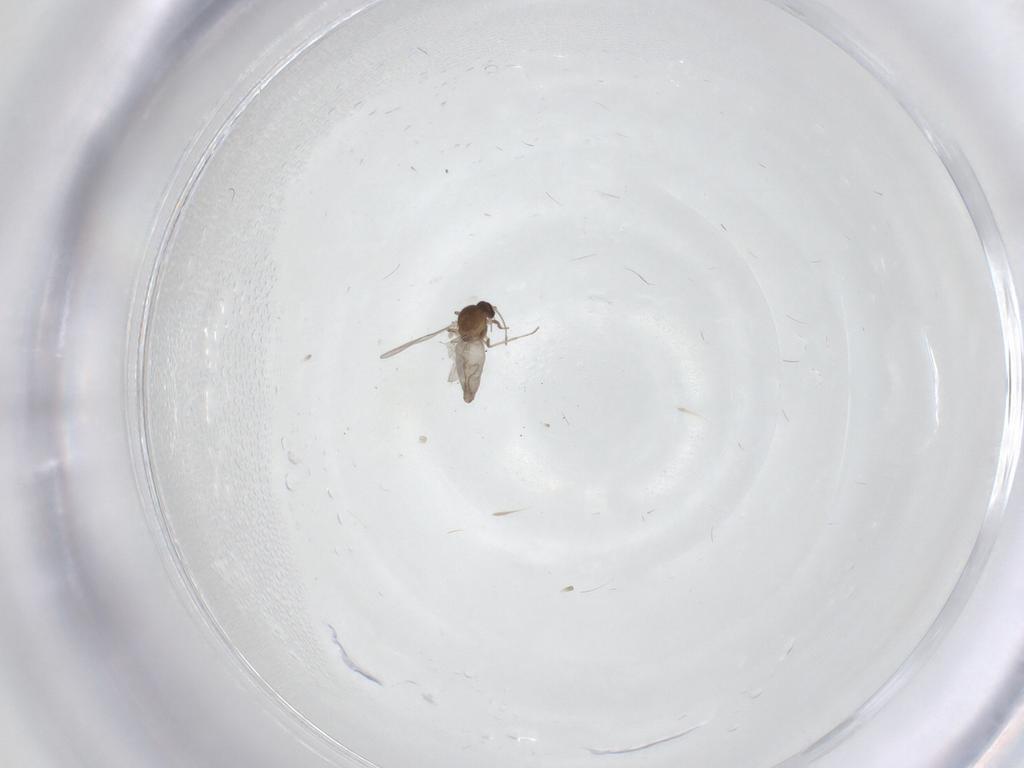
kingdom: Animalia
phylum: Arthropoda
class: Insecta
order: Diptera
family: Ceratopogonidae
